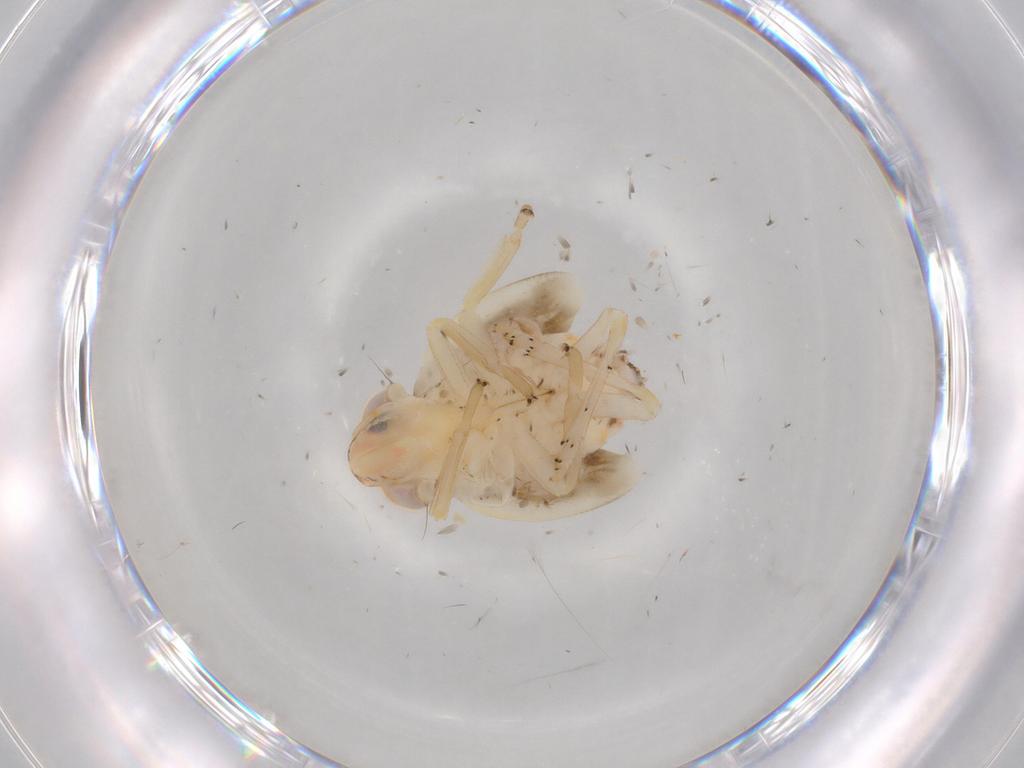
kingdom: Animalia
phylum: Arthropoda
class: Insecta
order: Hemiptera
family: Nogodinidae
